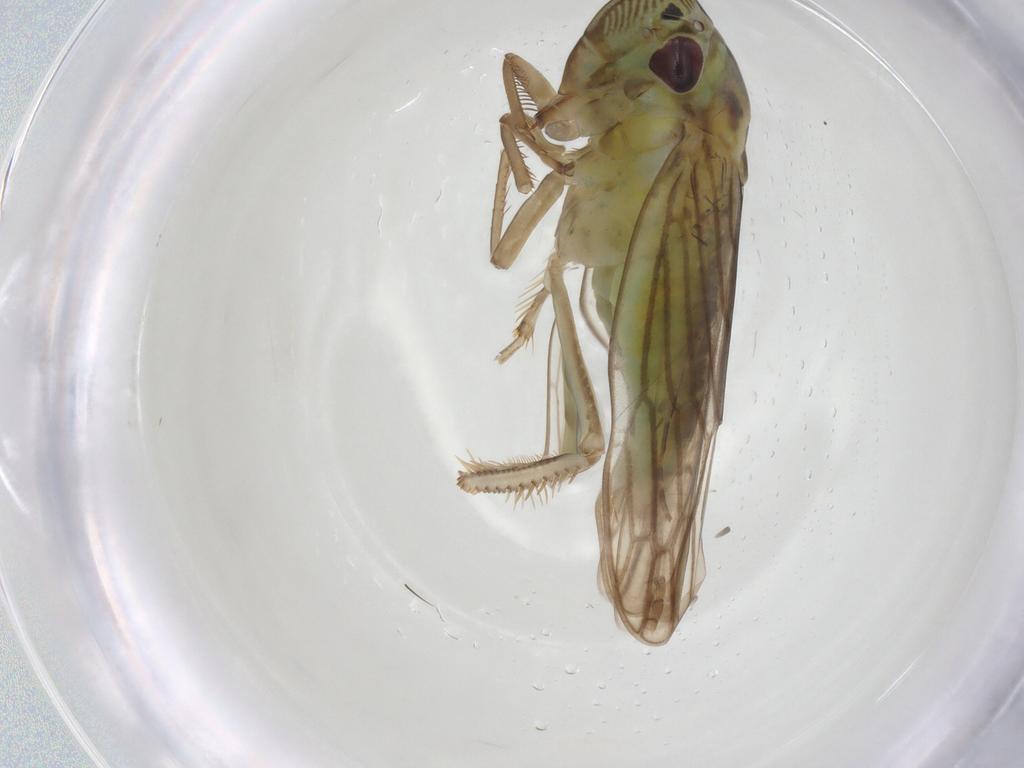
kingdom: Animalia
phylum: Arthropoda
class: Insecta
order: Hemiptera
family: Cicadellidae
